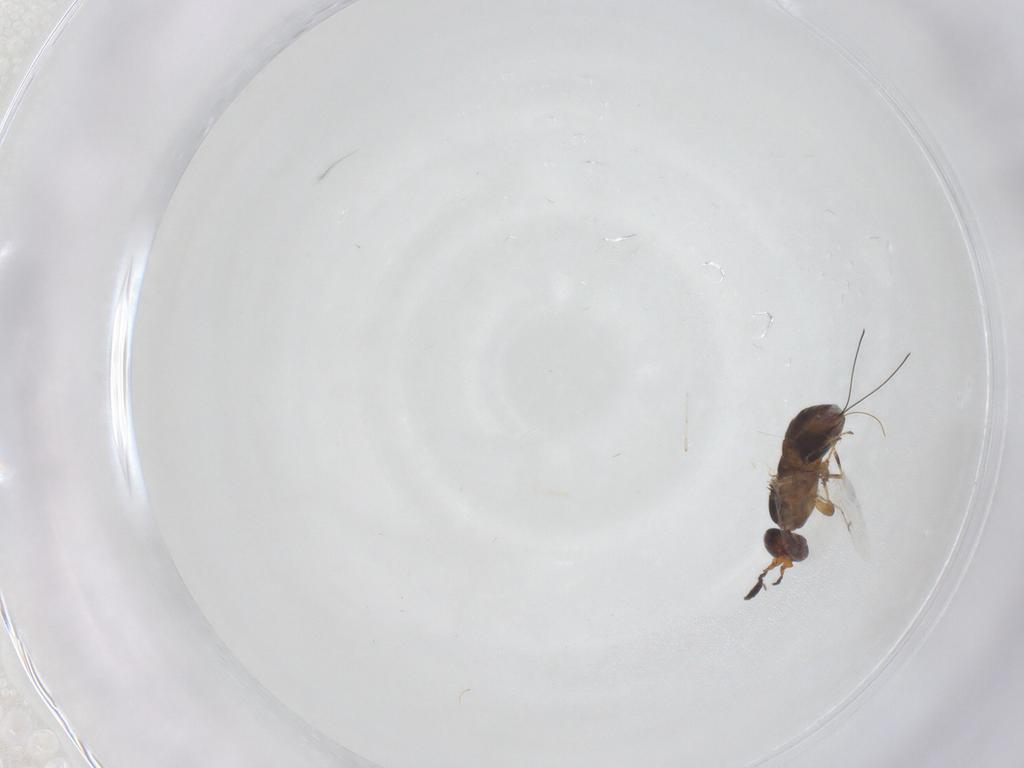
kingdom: Animalia
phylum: Arthropoda
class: Insecta
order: Hymenoptera
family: Agaonidae
